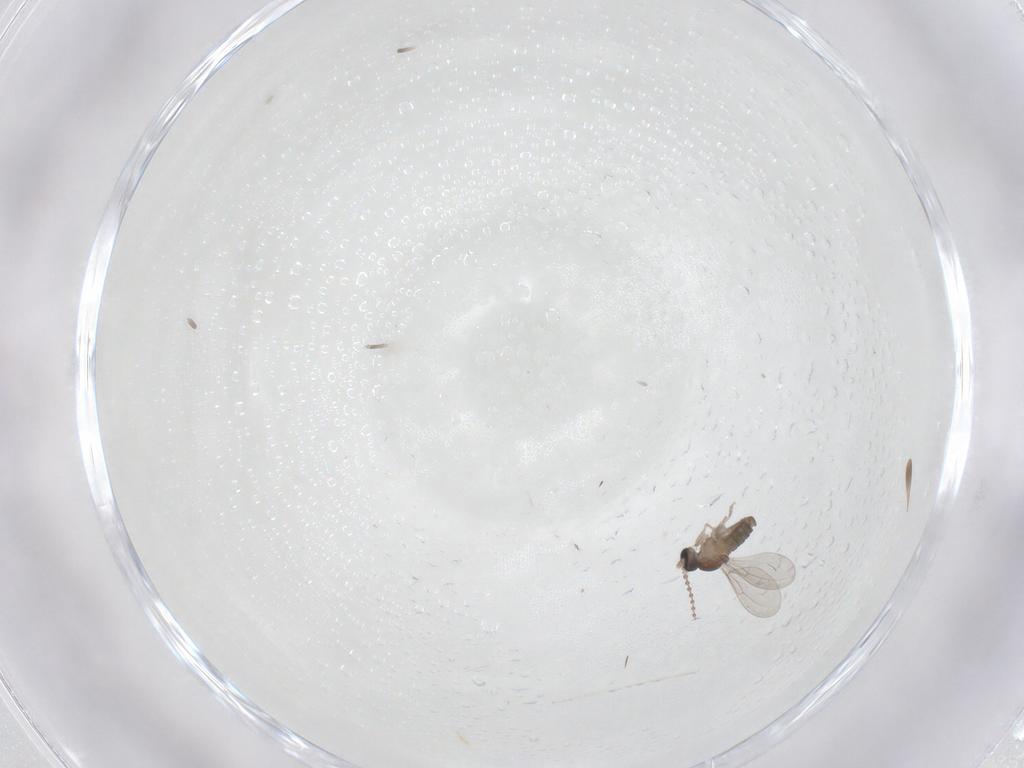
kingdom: Animalia
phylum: Arthropoda
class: Insecta
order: Diptera
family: Cecidomyiidae
